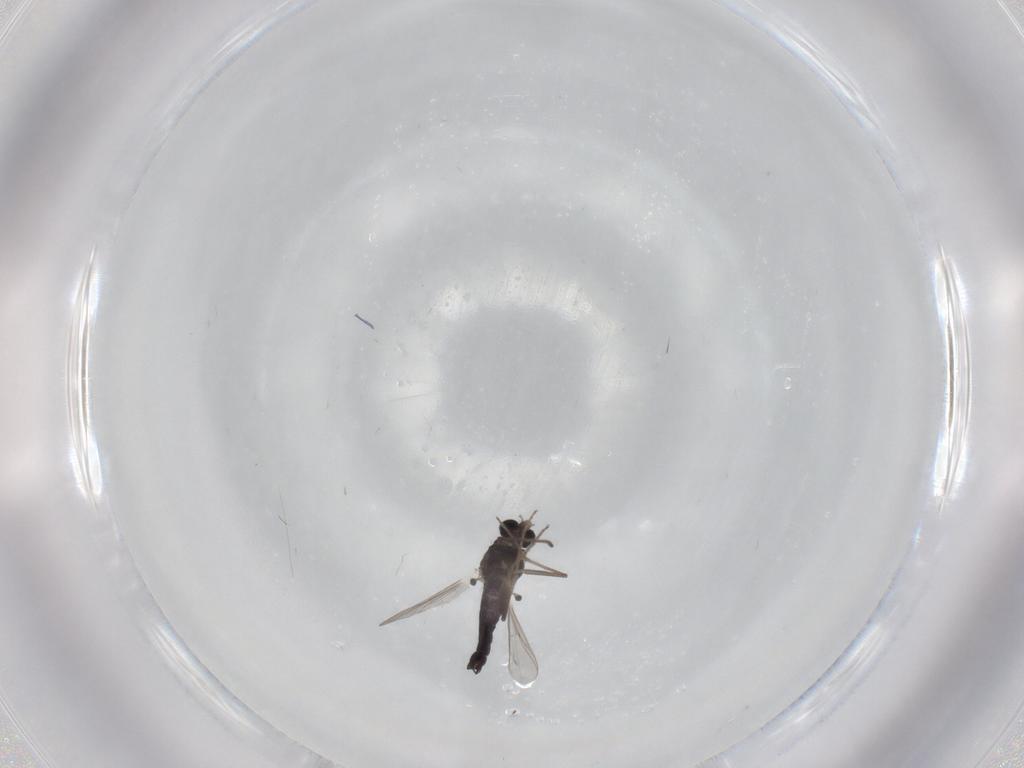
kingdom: Animalia
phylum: Arthropoda
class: Insecta
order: Diptera
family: Chironomidae
